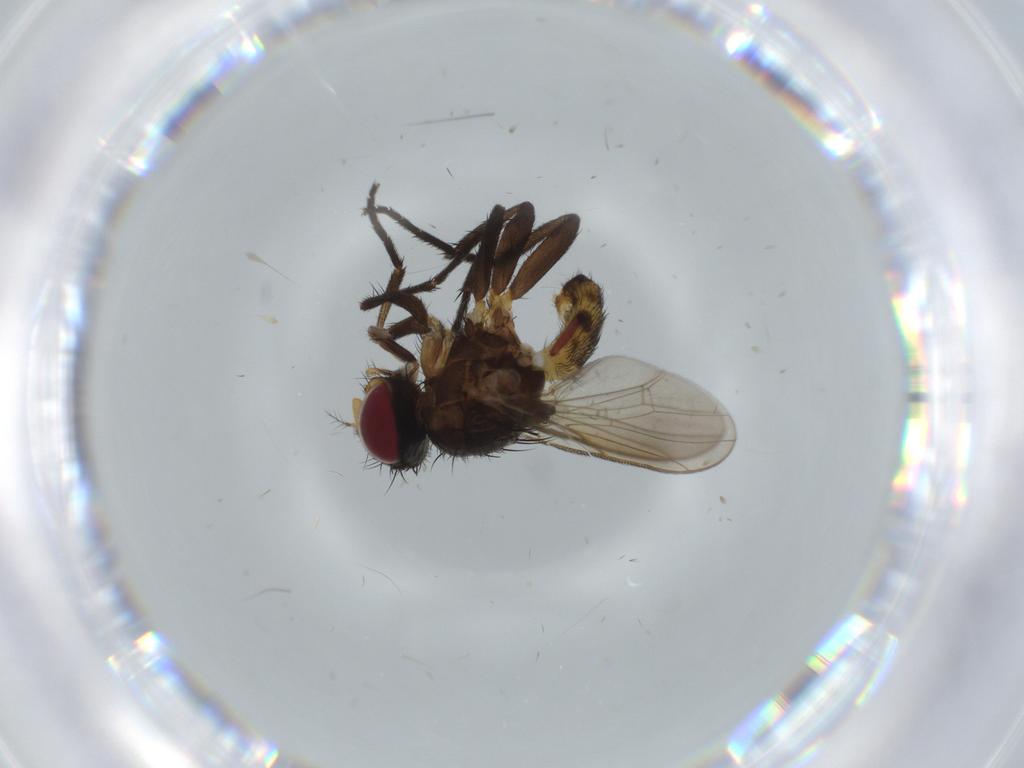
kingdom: Animalia
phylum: Arthropoda
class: Insecta
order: Diptera
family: Anthomyiidae
